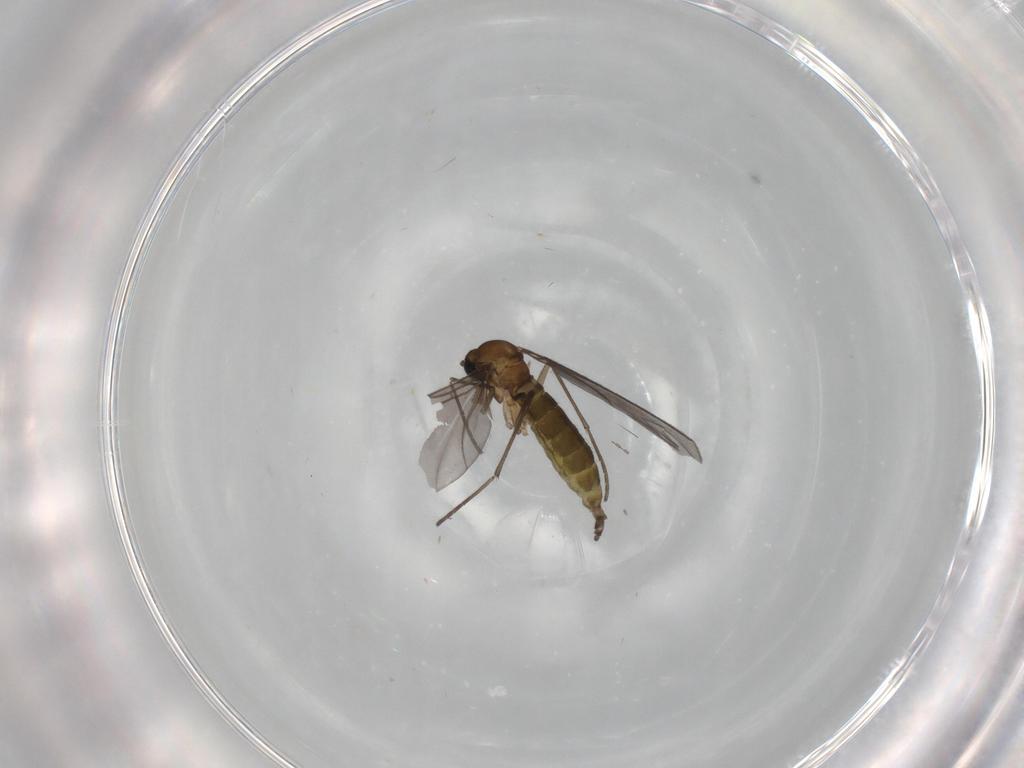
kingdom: Animalia
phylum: Arthropoda
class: Insecta
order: Diptera
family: Sciaridae
